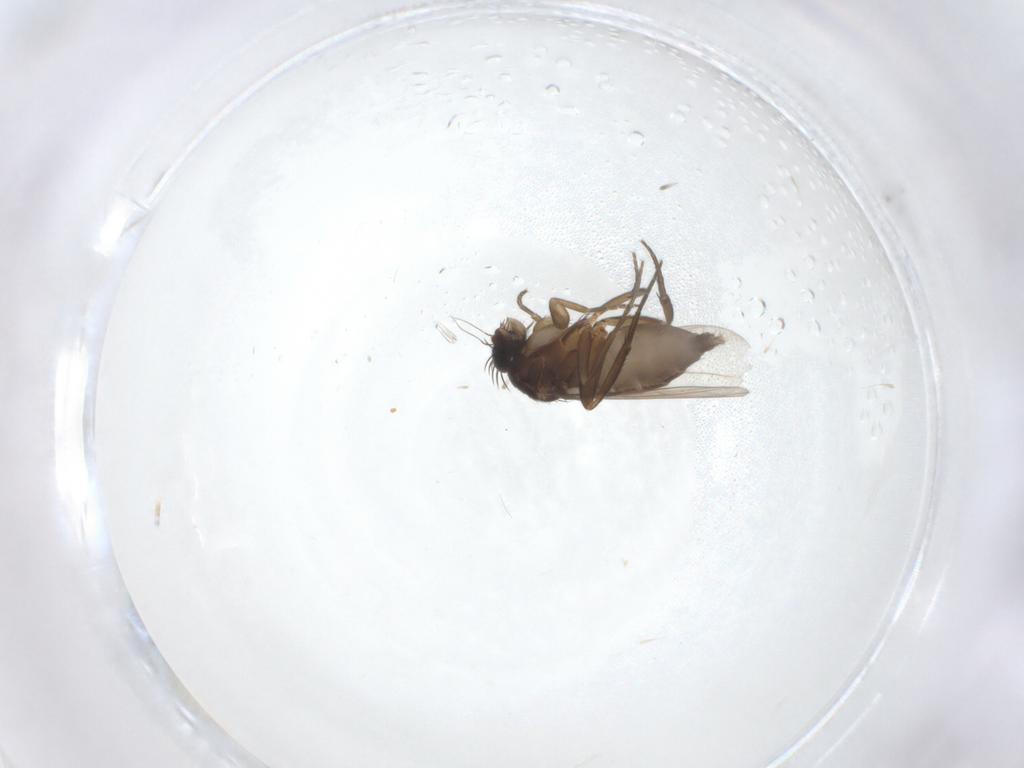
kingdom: Animalia
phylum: Arthropoda
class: Insecta
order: Diptera
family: Phoridae
